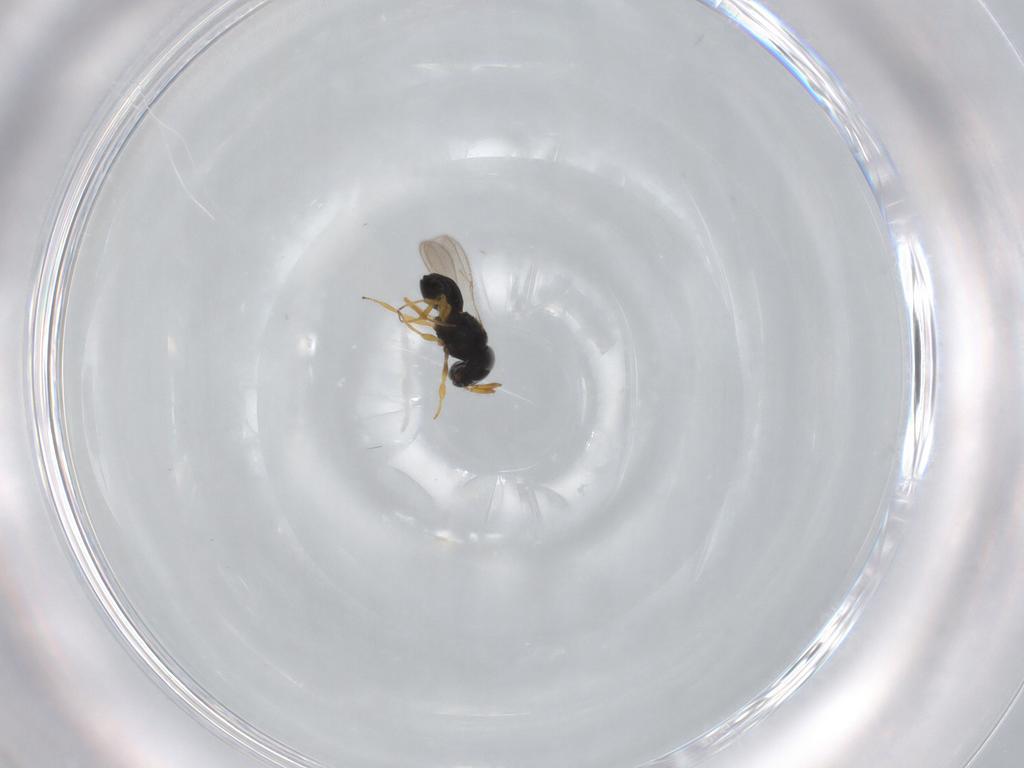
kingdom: Animalia
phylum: Arthropoda
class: Insecta
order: Hymenoptera
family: Scelionidae
